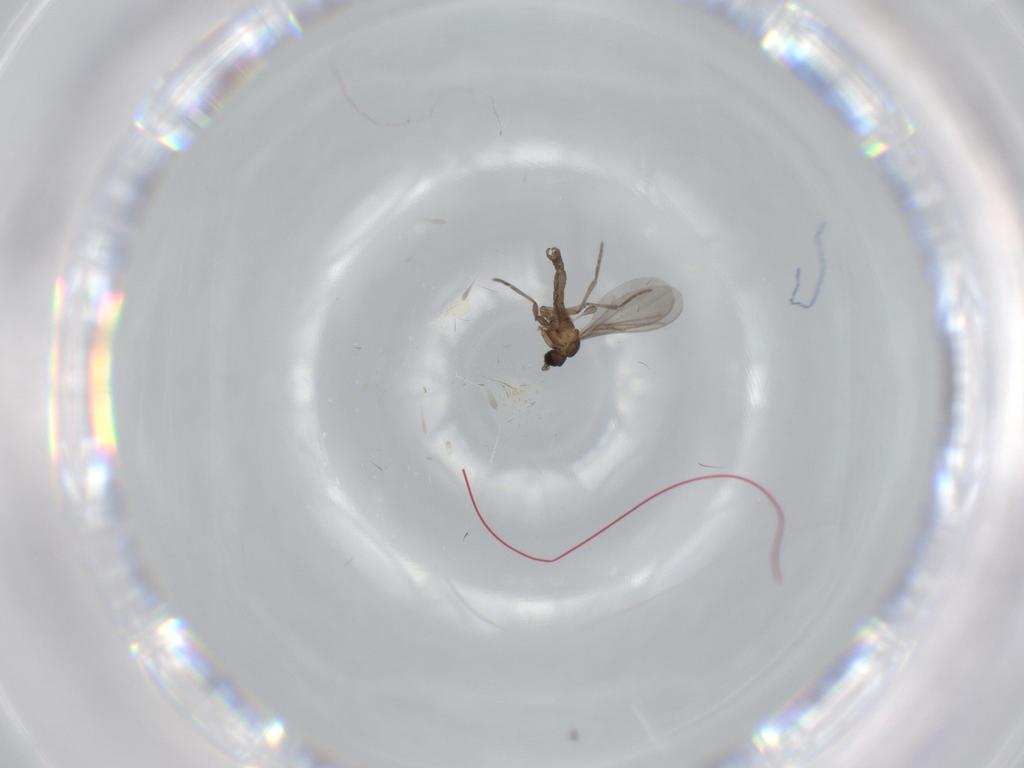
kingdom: Animalia
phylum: Arthropoda
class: Insecta
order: Diptera
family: Sciaridae
